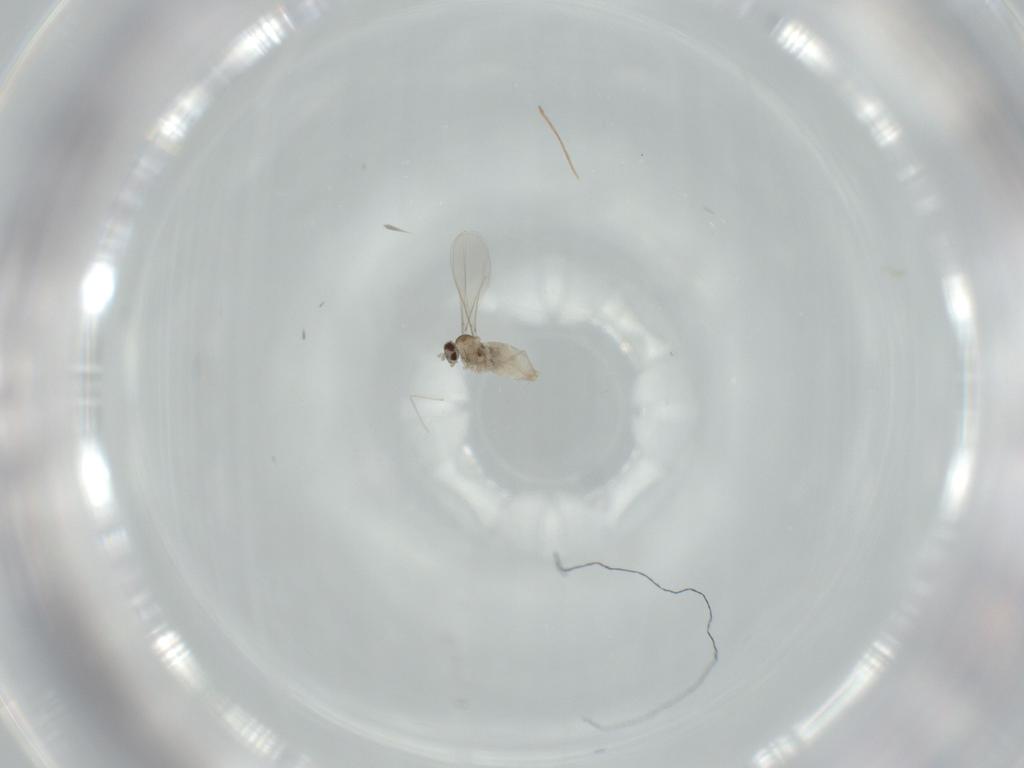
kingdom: Animalia
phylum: Arthropoda
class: Insecta
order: Diptera
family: Cecidomyiidae
